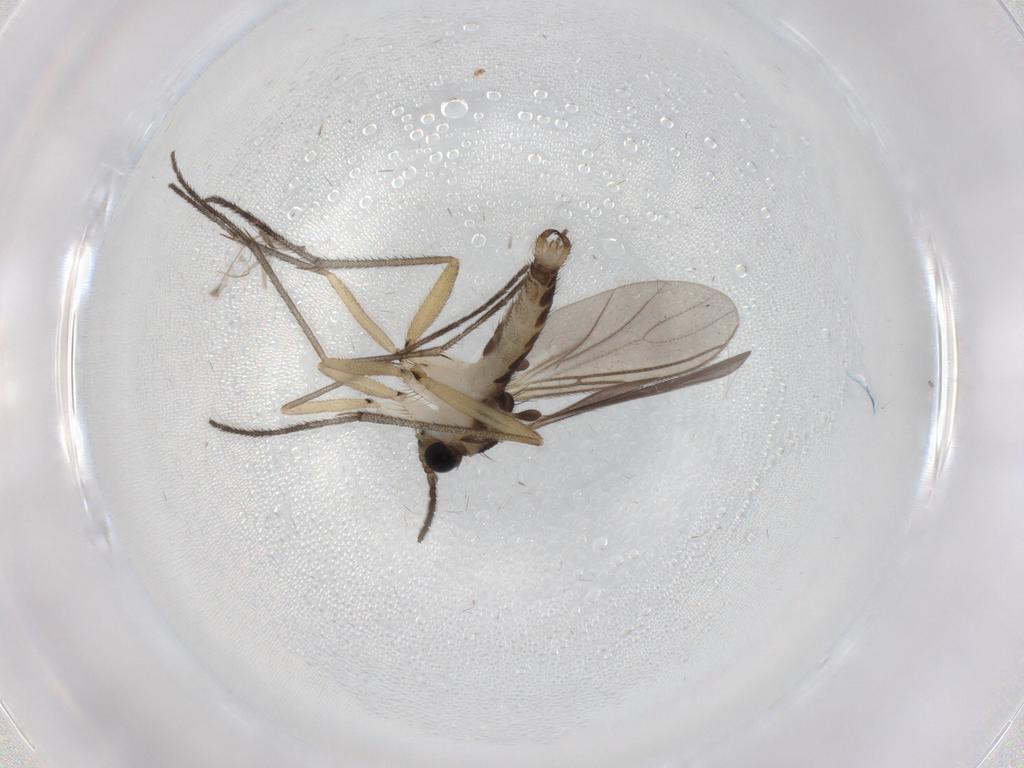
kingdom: Animalia
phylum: Arthropoda
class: Insecta
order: Diptera
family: Sciaridae
